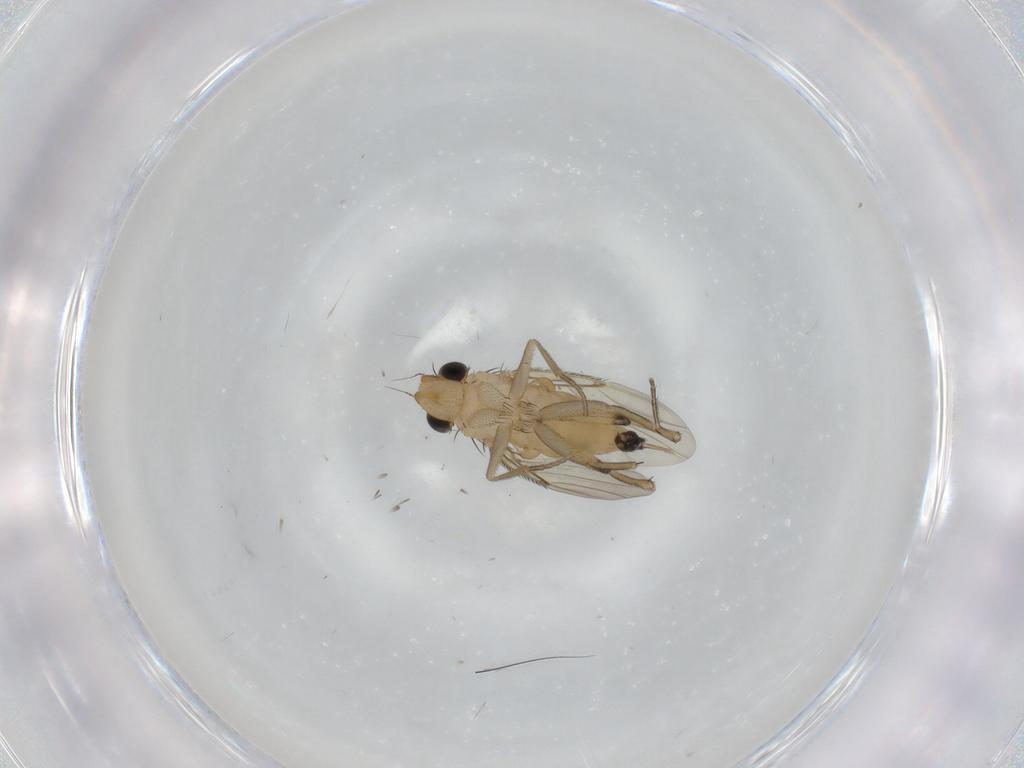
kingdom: Animalia
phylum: Arthropoda
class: Insecta
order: Diptera
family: Phoridae
